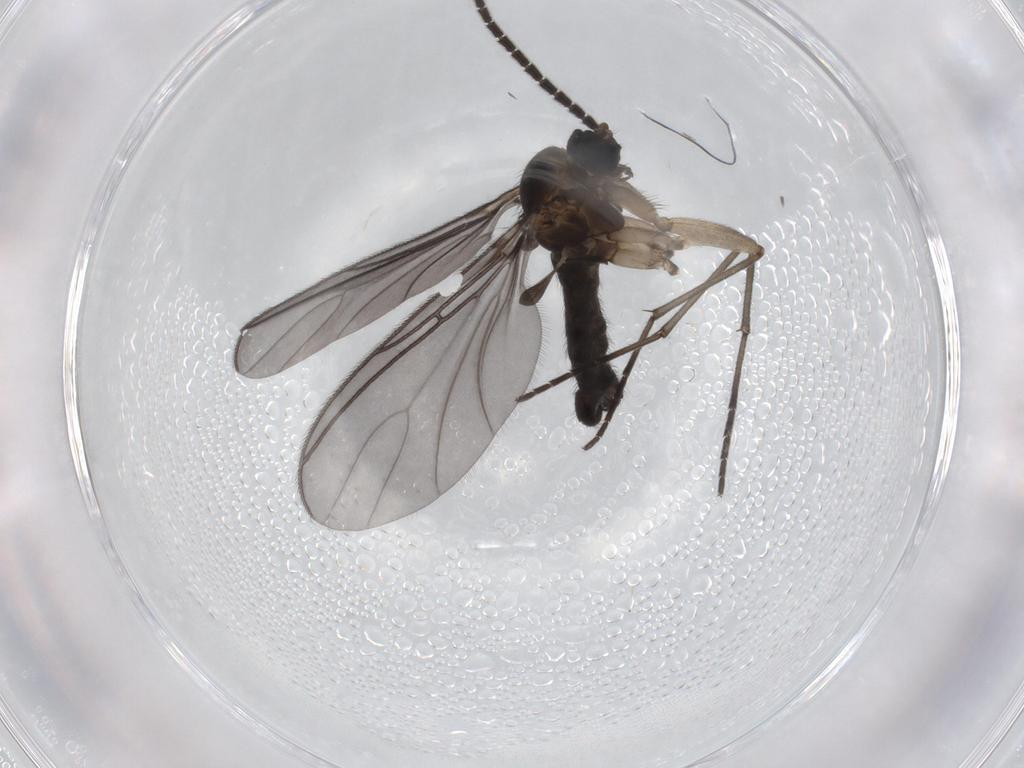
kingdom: Animalia
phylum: Arthropoda
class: Insecta
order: Diptera
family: Sciaridae
